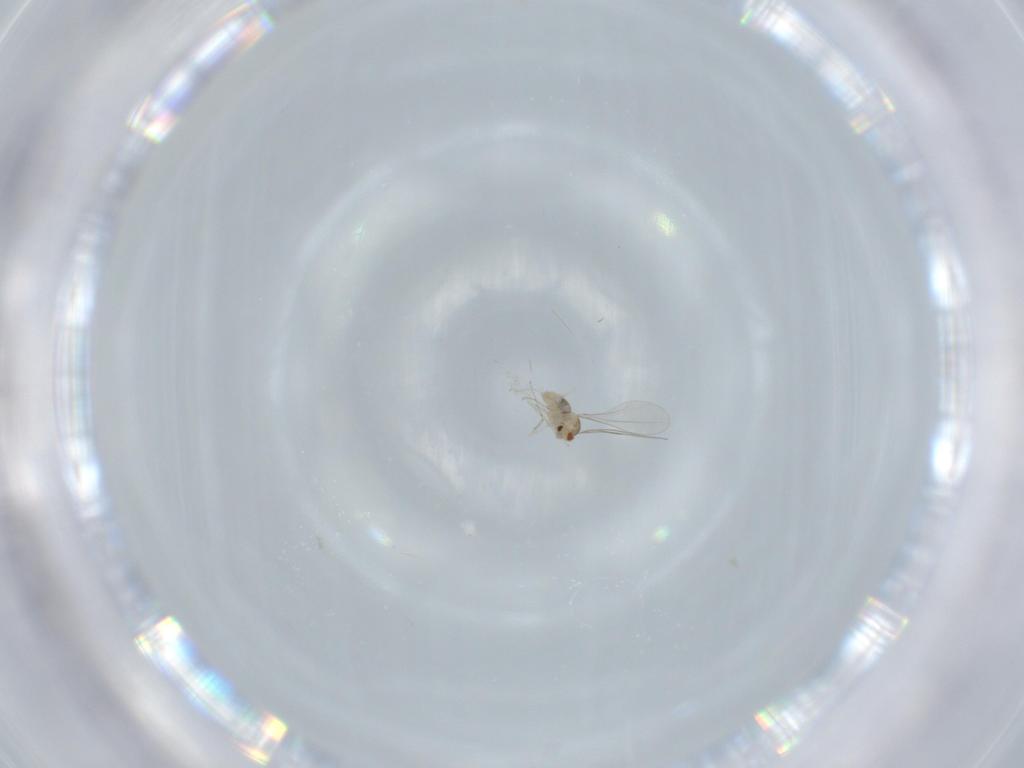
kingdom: Animalia
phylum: Arthropoda
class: Insecta
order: Diptera
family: Cecidomyiidae
